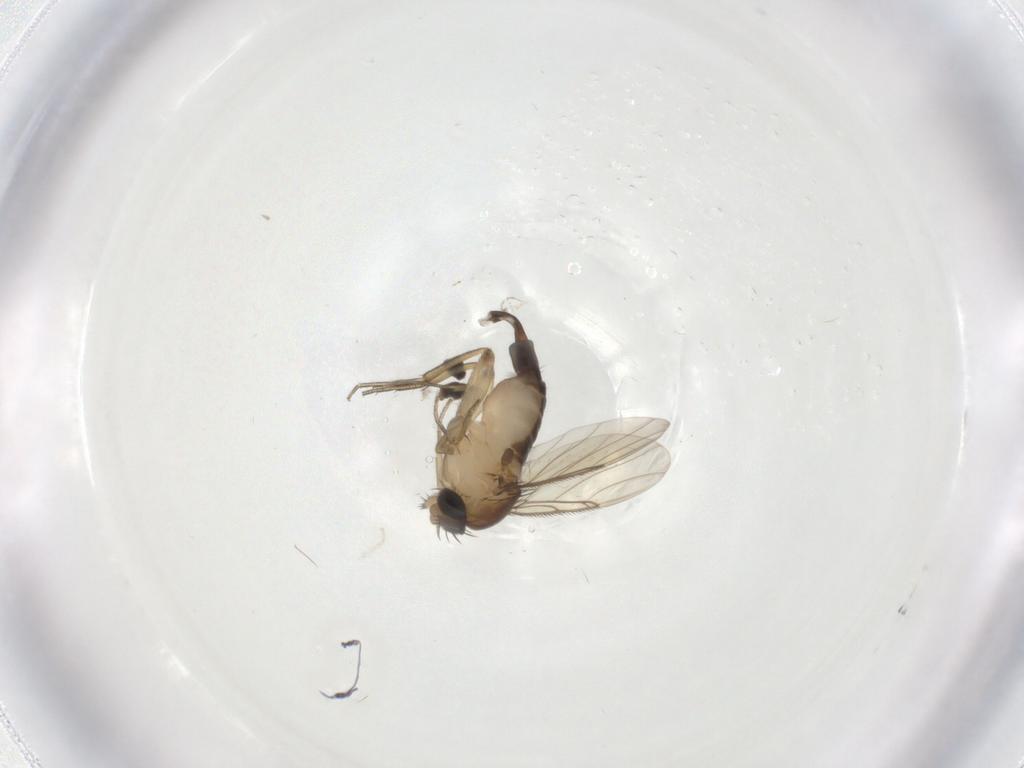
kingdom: Animalia
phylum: Arthropoda
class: Insecta
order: Diptera
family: Phoridae
